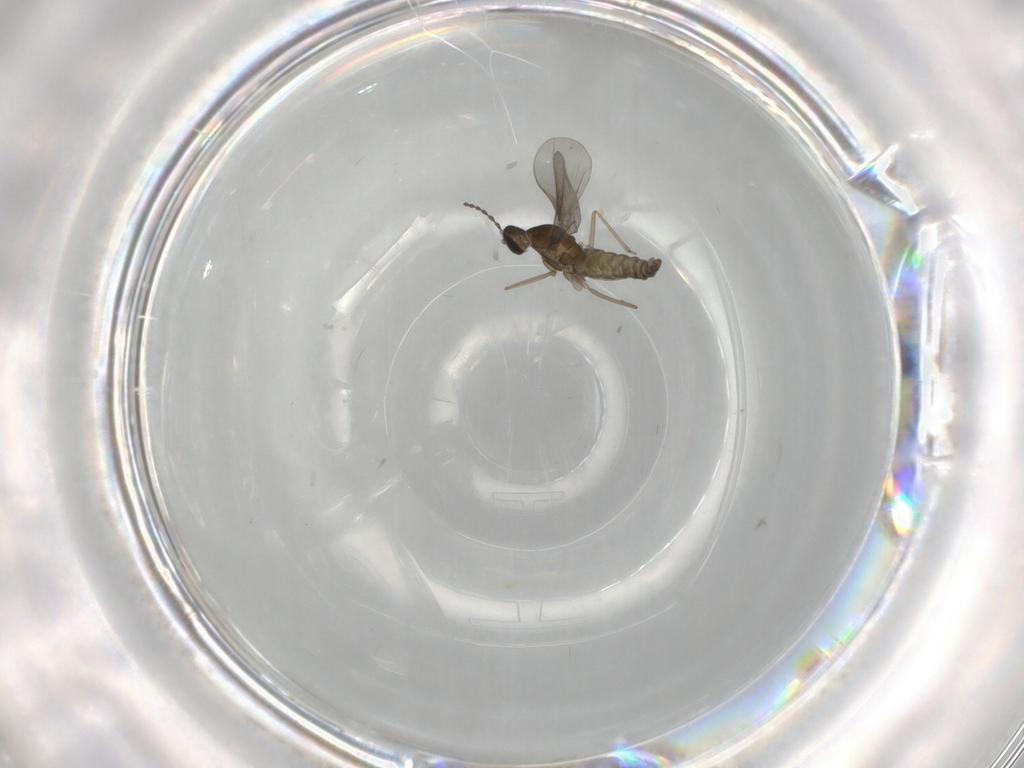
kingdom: Animalia
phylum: Arthropoda
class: Insecta
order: Diptera
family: Cecidomyiidae
